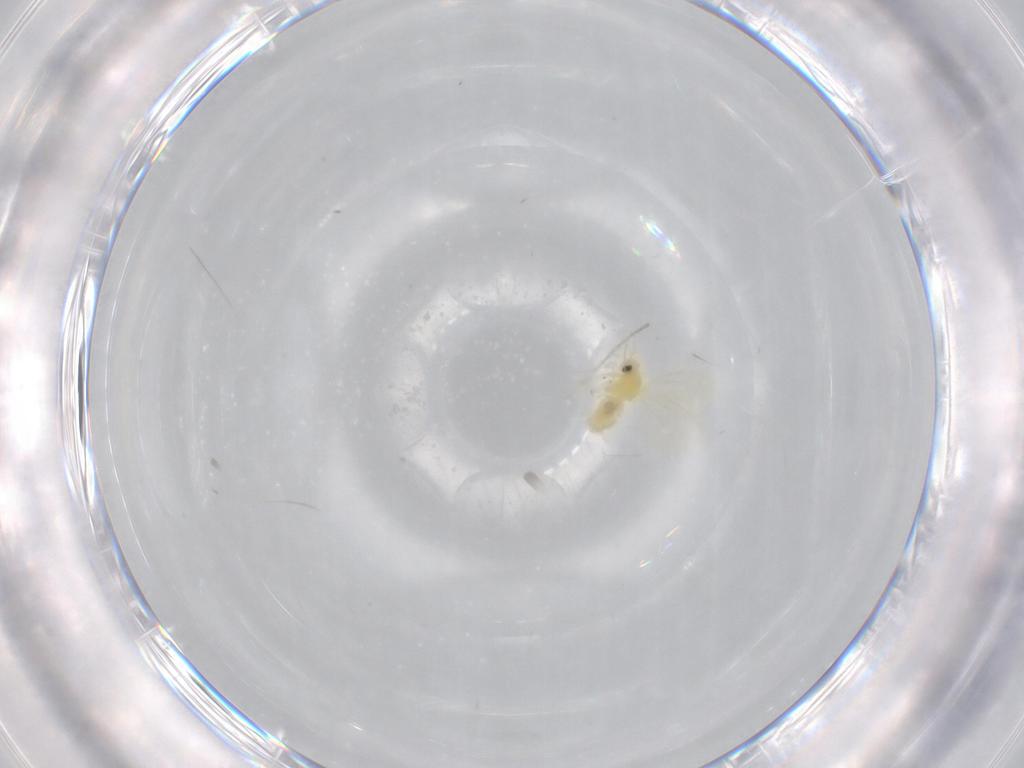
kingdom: Animalia
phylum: Arthropoda
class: Insecta
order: Hemiptera
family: Aleyrodidae
